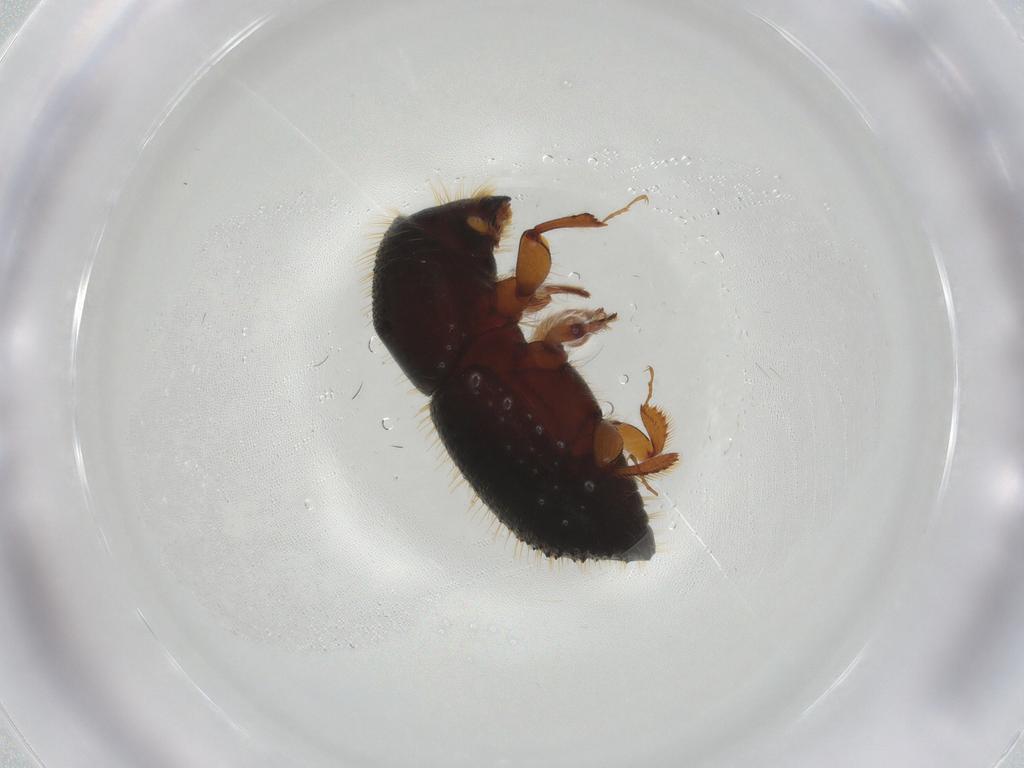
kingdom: Animalia
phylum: Arthropoda
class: Insecta
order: Coleoptera
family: Curculionidae
